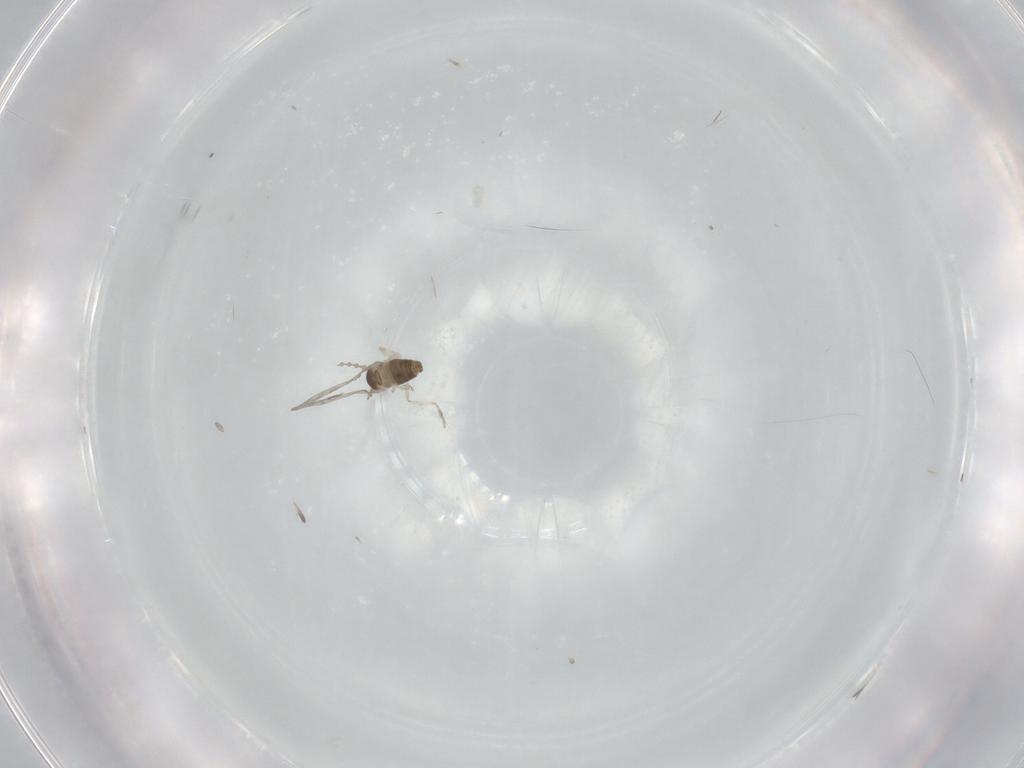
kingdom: Animalia
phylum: Arthropoda
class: Insecta
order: Diptera
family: Cecidomyiidae
